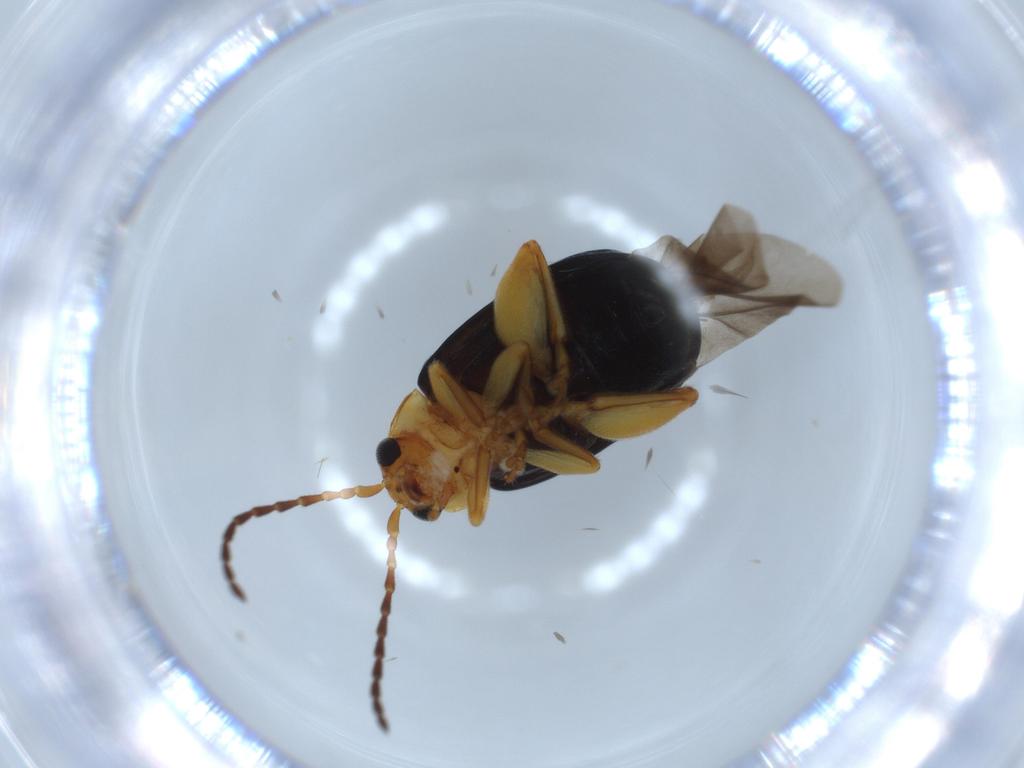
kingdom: Animalia
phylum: Arthropoda
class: Insecta
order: Coleoptera
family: Chrysomelidae
